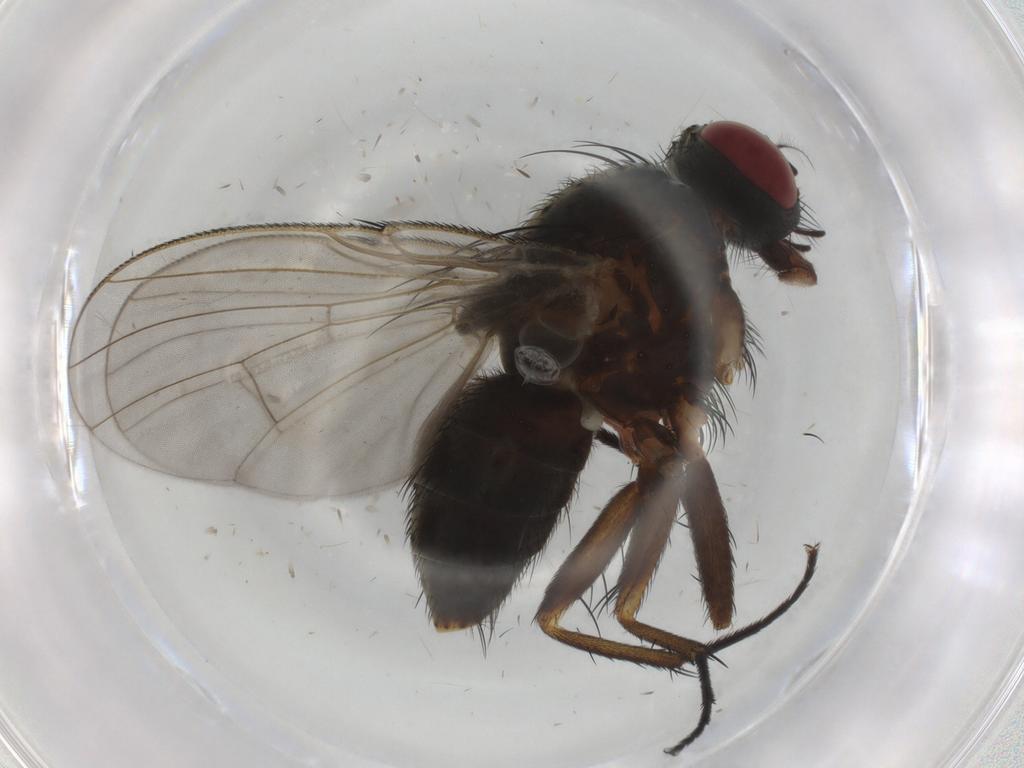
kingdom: Animalia
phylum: Arthropoda
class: Insecta
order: Diptera
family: Muscidae
